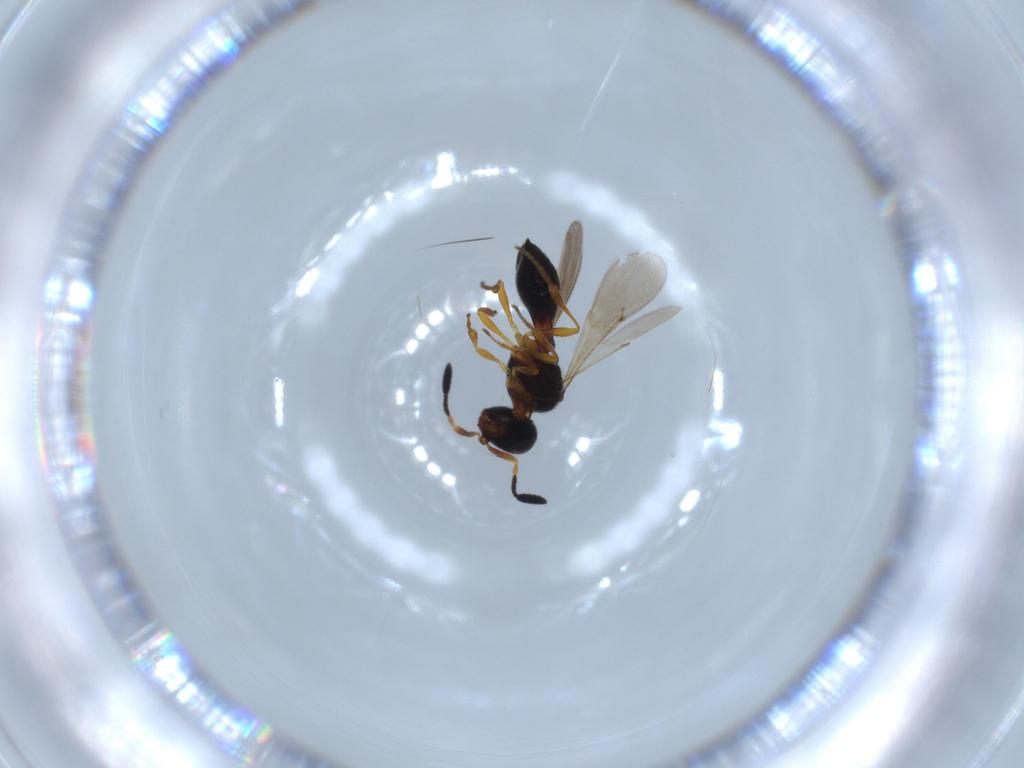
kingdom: Animalia
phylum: Arthropoda
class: Insecta
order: Hymenoptera
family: Scelionidae
